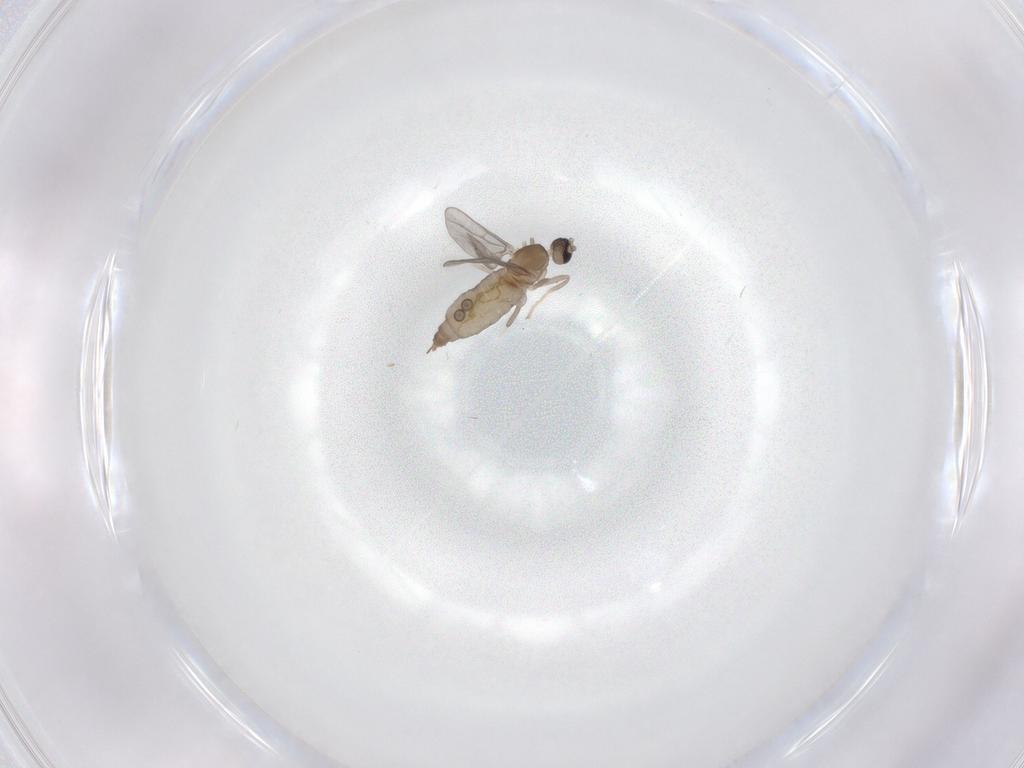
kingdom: Animalia
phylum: Arthropoda
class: Insecta
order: Diptera
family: Cecidomyiidae
